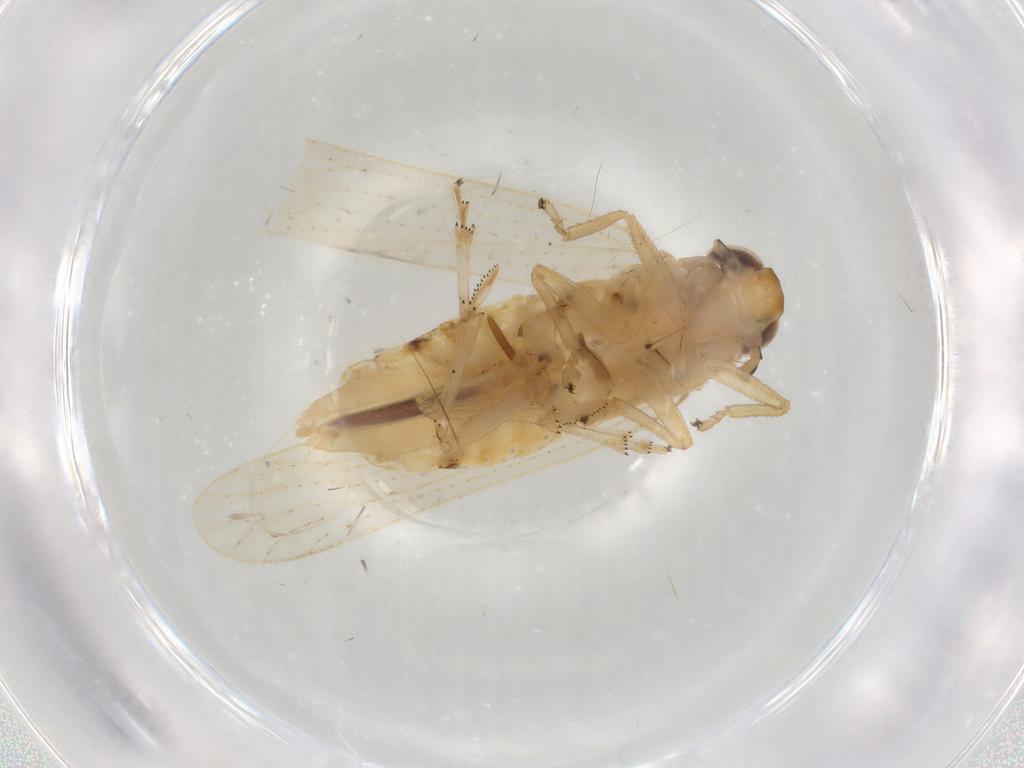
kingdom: Animalia
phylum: Arthropoda
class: Insecta
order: Hemiptera
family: Delphacidae
